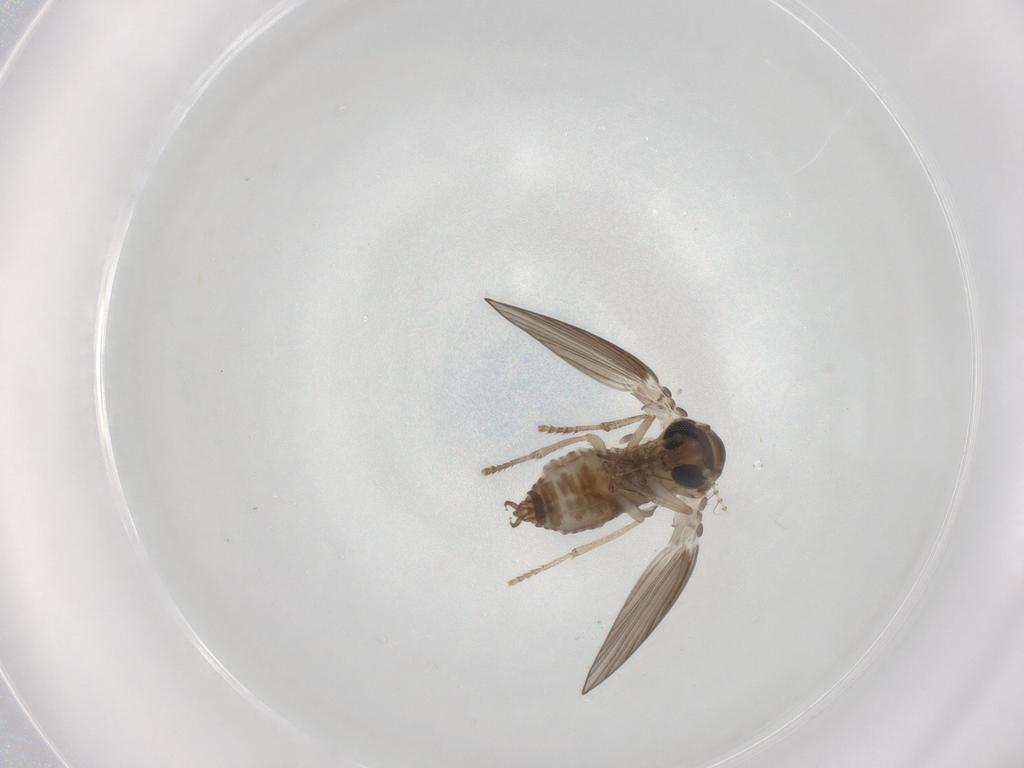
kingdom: Animalia
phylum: Arthropoda
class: Insecta
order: Diptera
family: Psychodidae
